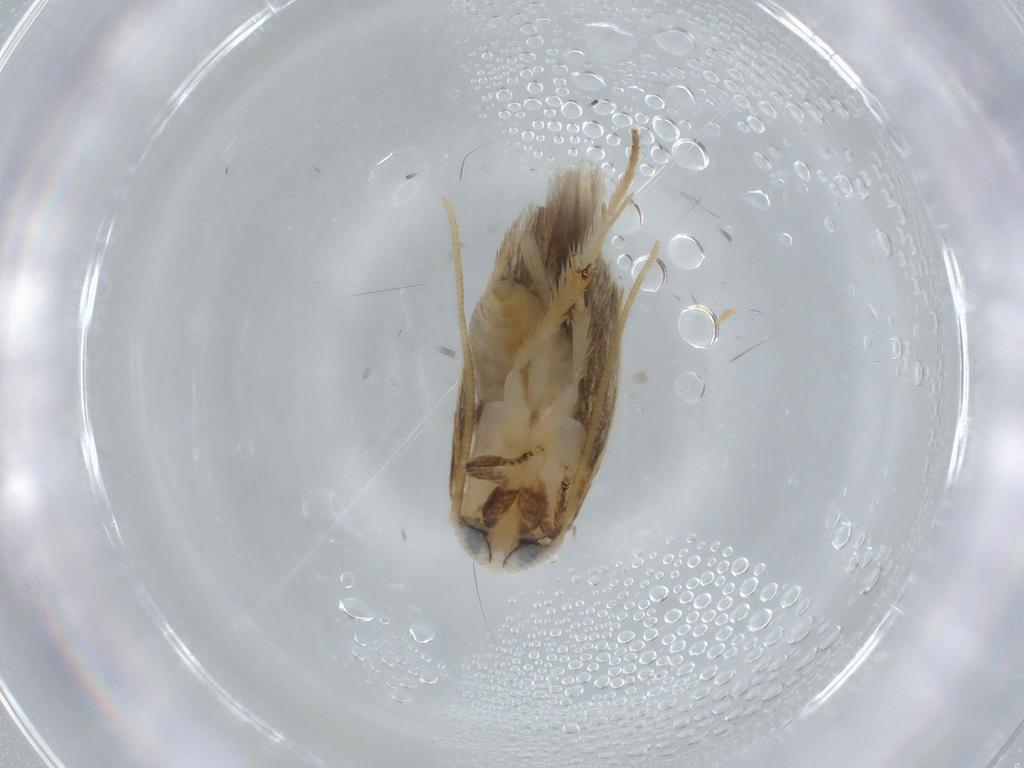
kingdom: Animalia
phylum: Arthropoda
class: Insecta
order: Lepidoptera
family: Opostegidae
